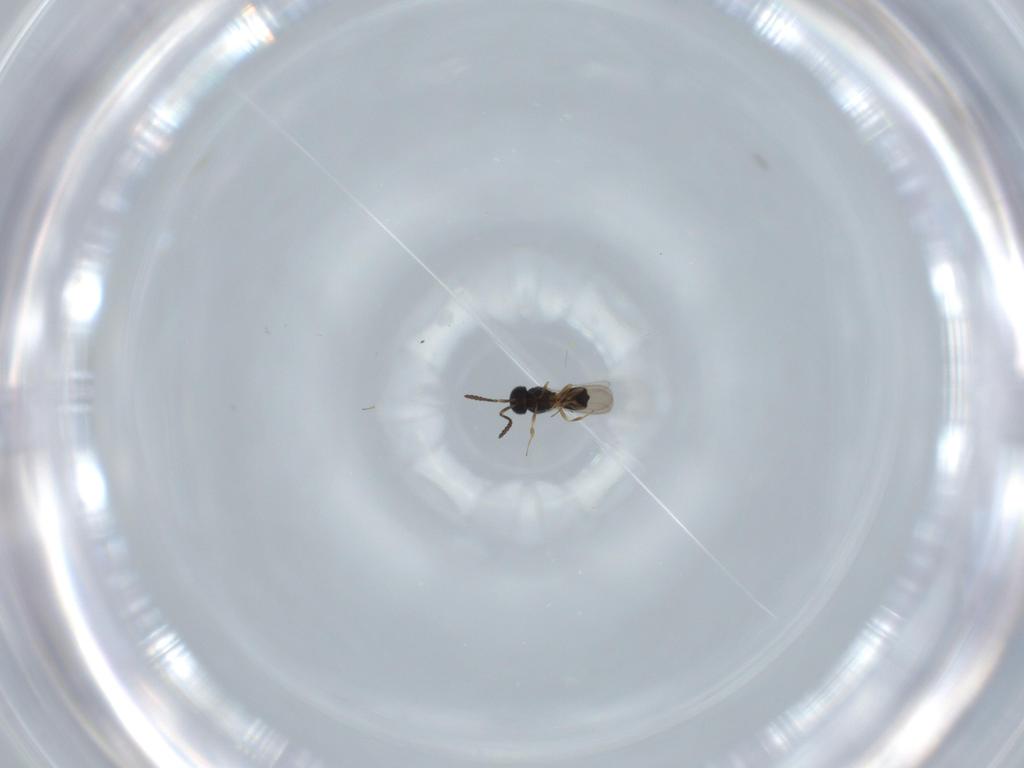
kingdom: Animalia
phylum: Arthropoda
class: Insecta
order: Hymenoptera
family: Scelionidae
